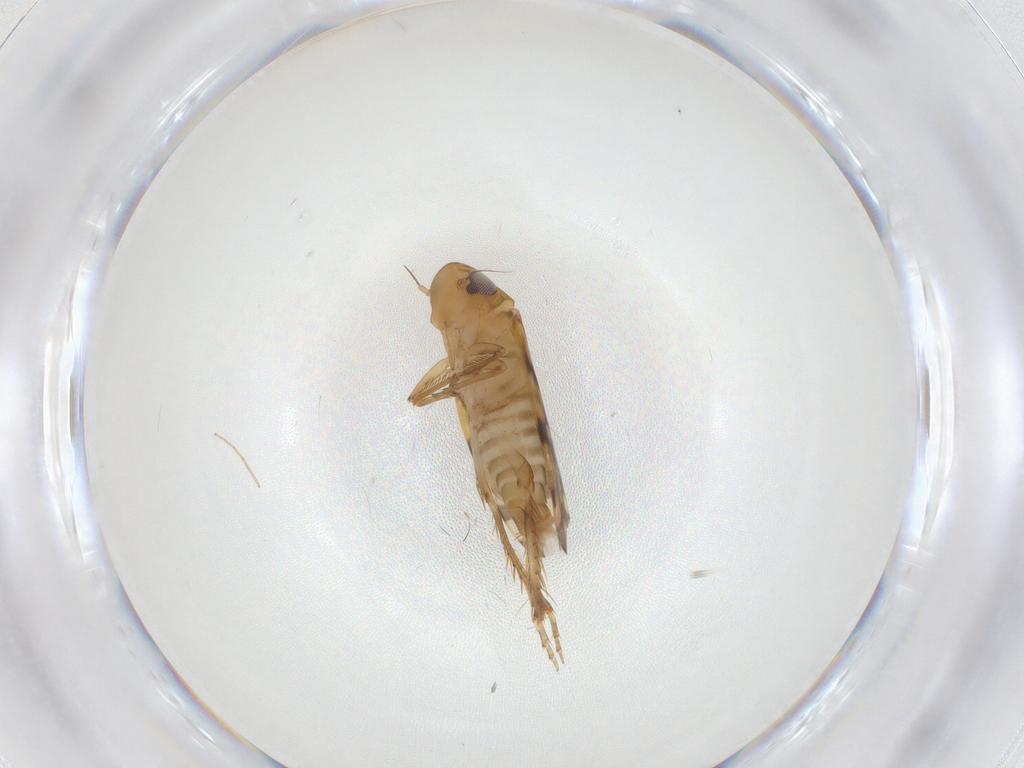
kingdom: Animalia
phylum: Arthropoda
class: Insecta
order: Hemiptera
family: Cicadellidae
